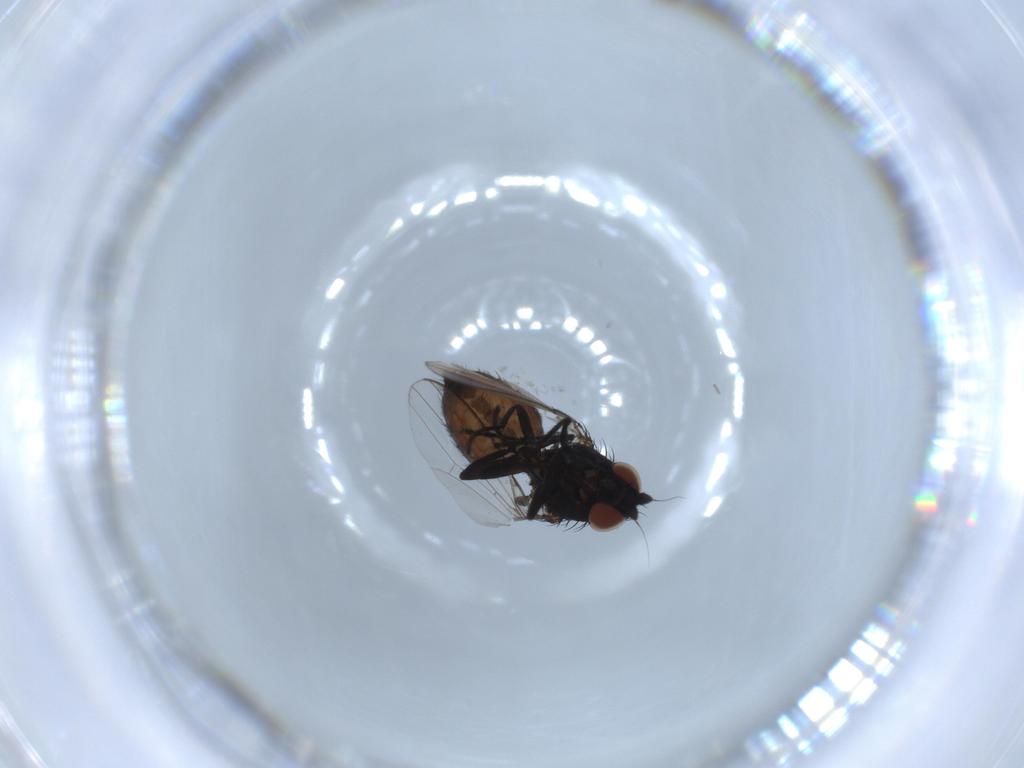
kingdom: Animalia
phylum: Arthropoda
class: Insecta
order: Diptera
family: Milichiidae
